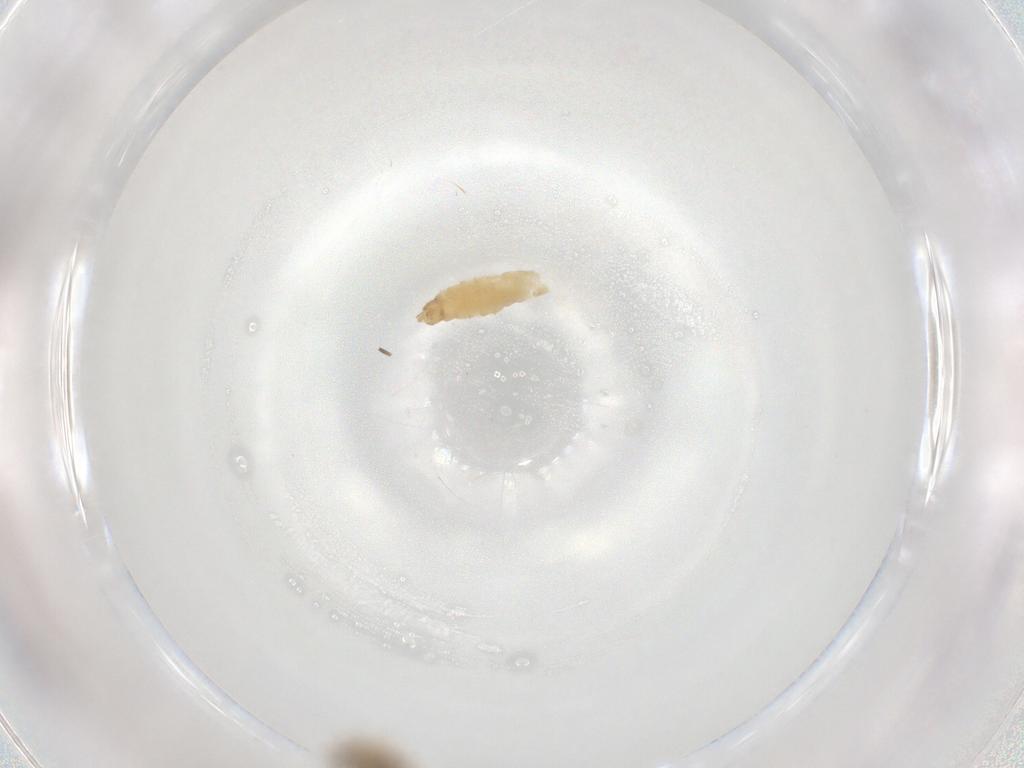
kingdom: Animalia
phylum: Arthropoda
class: Insecta
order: Diptera
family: Chironomidae
